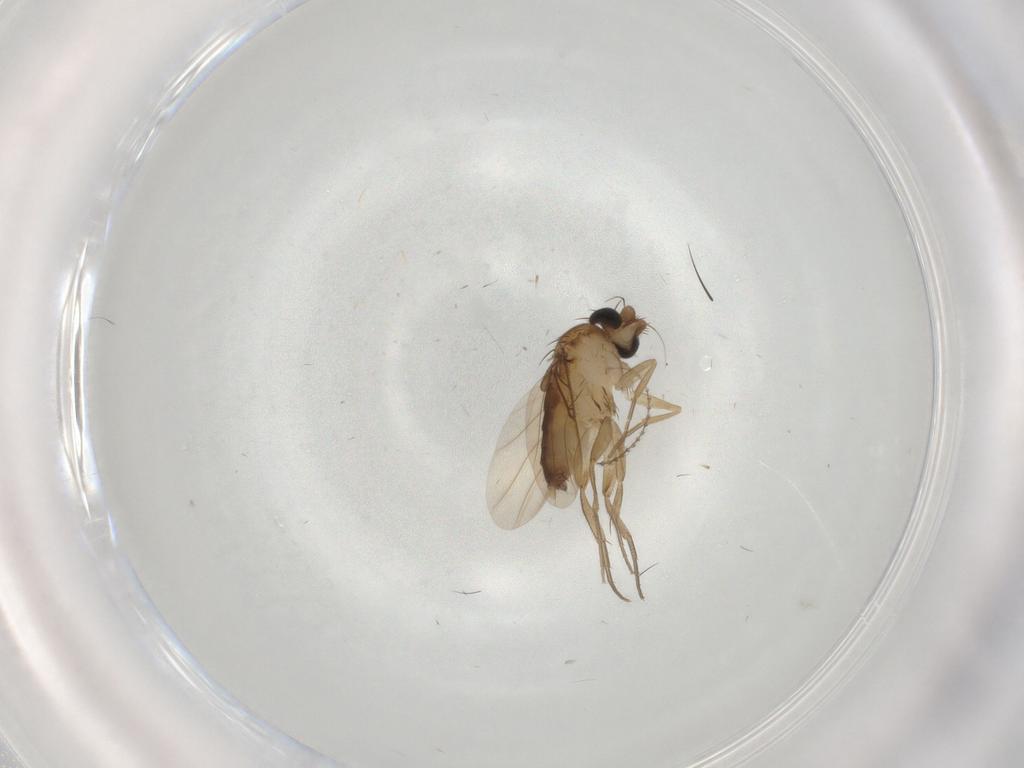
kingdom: Animalia
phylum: Arthropoda
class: Insecta
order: Diptera
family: Phoridae
